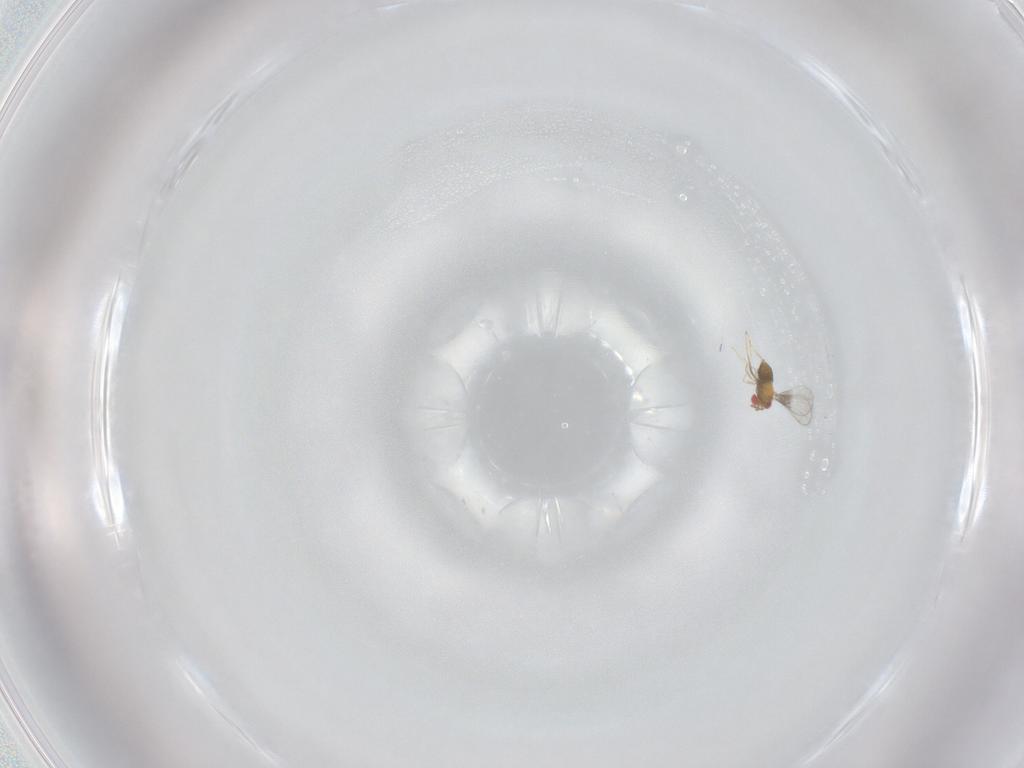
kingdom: Animalia
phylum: Arthropoda
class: Insecta
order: Hymenoptera
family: Trichogrammatidae
